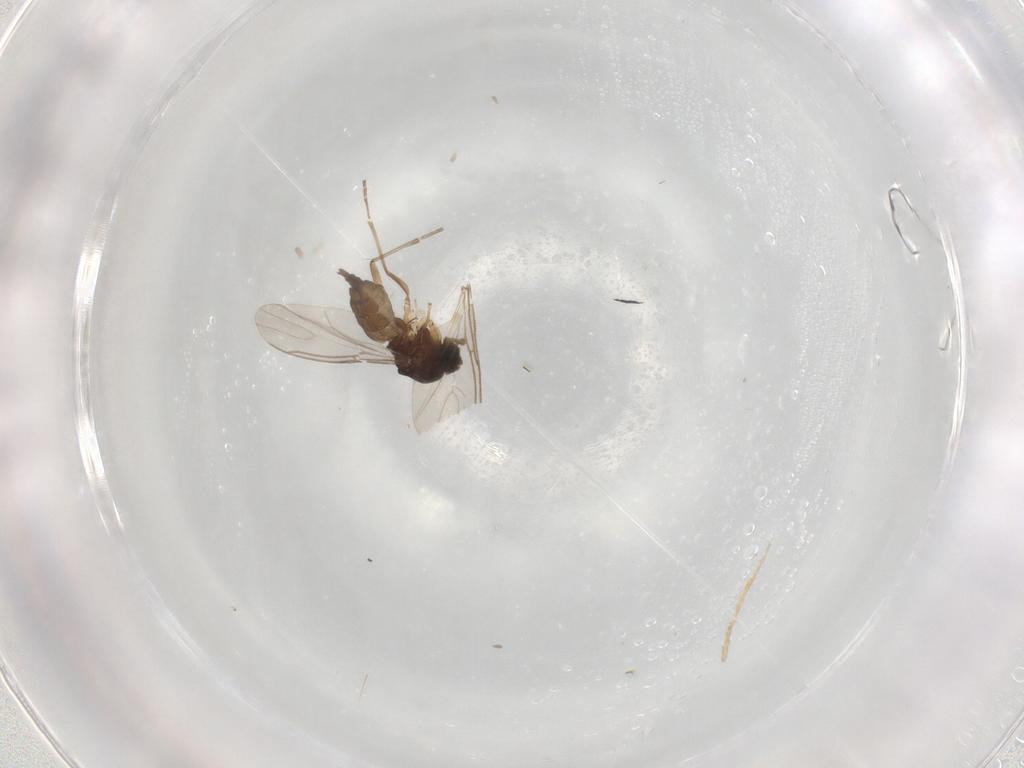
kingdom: Animalia
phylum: Arthropoda
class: Insecta
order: Diptera
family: Sciaridae
